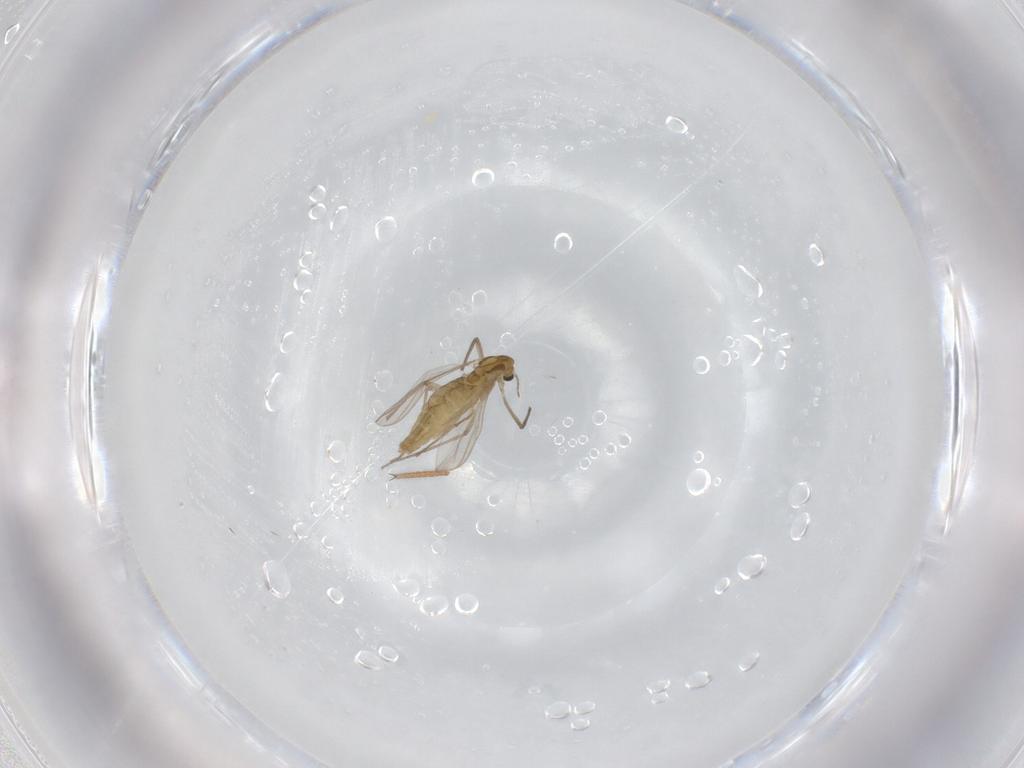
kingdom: Animalia
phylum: Arthropoda
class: Insecta
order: Diptera
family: Chironomidae
